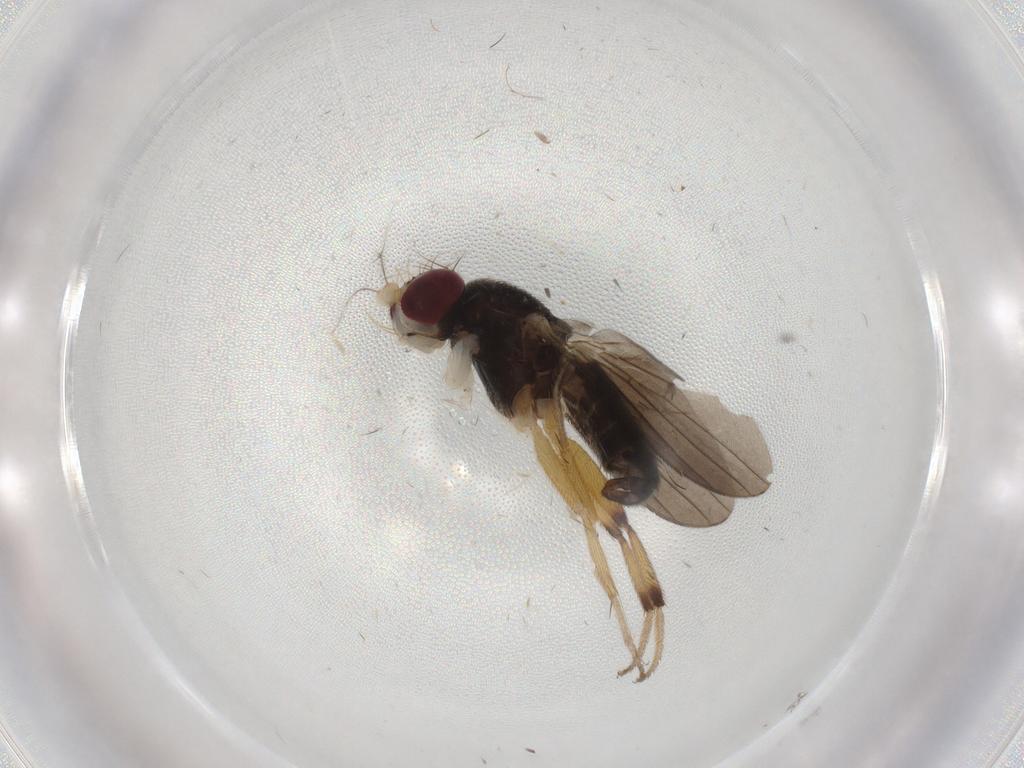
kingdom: Animalia
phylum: Arthropoda
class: Insecta
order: Diptera
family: Clusiidae
